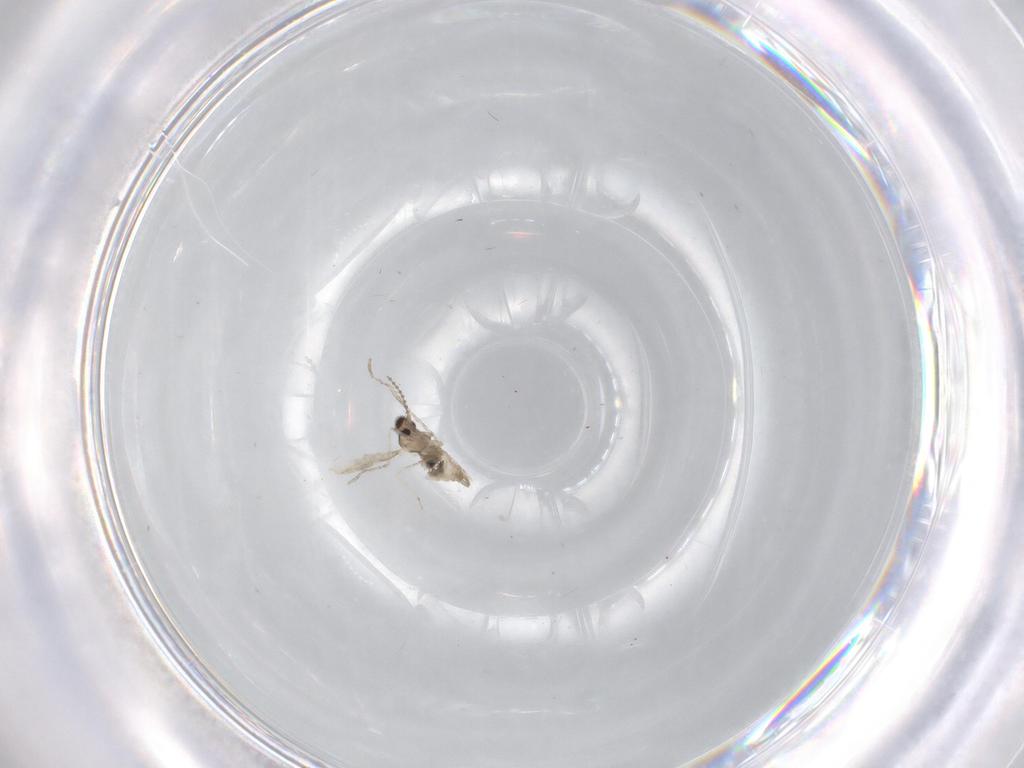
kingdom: Animalia
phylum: Arthropoda
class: Insecta
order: Diptera
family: Cecidomyiidae
